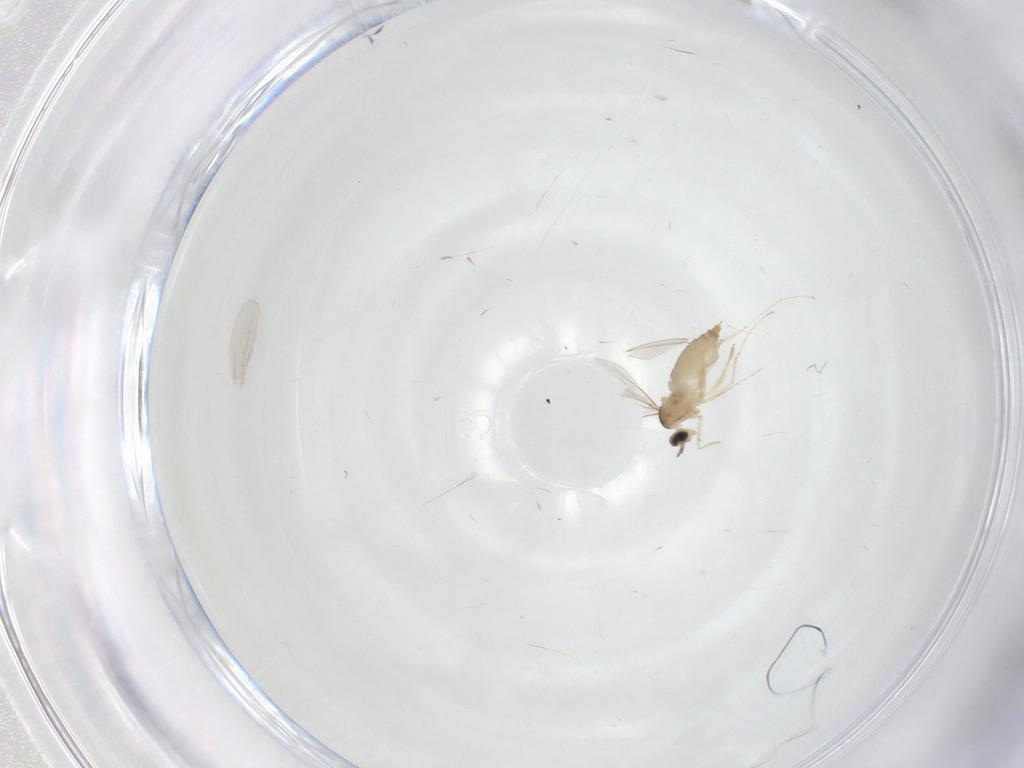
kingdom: Animalia
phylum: Arthropoda
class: Insecta
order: Diptera
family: Cecidomyiidae
